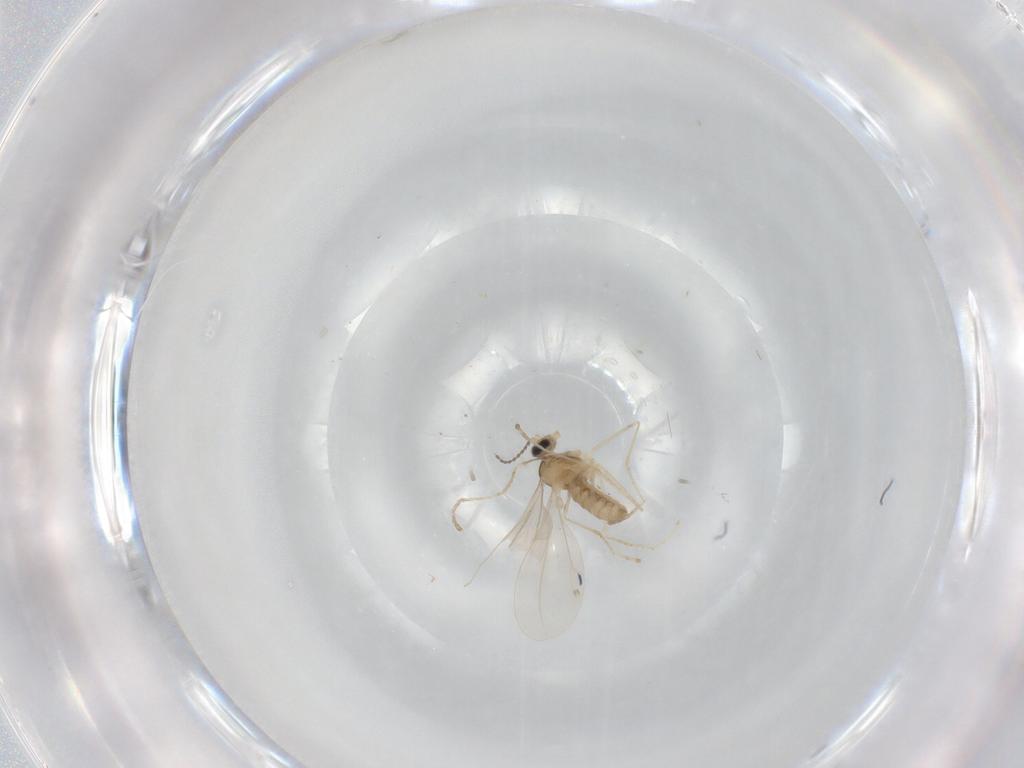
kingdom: Animalia
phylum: Arthropoda
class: Insecta
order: Diptera
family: Cecidomyiidae
